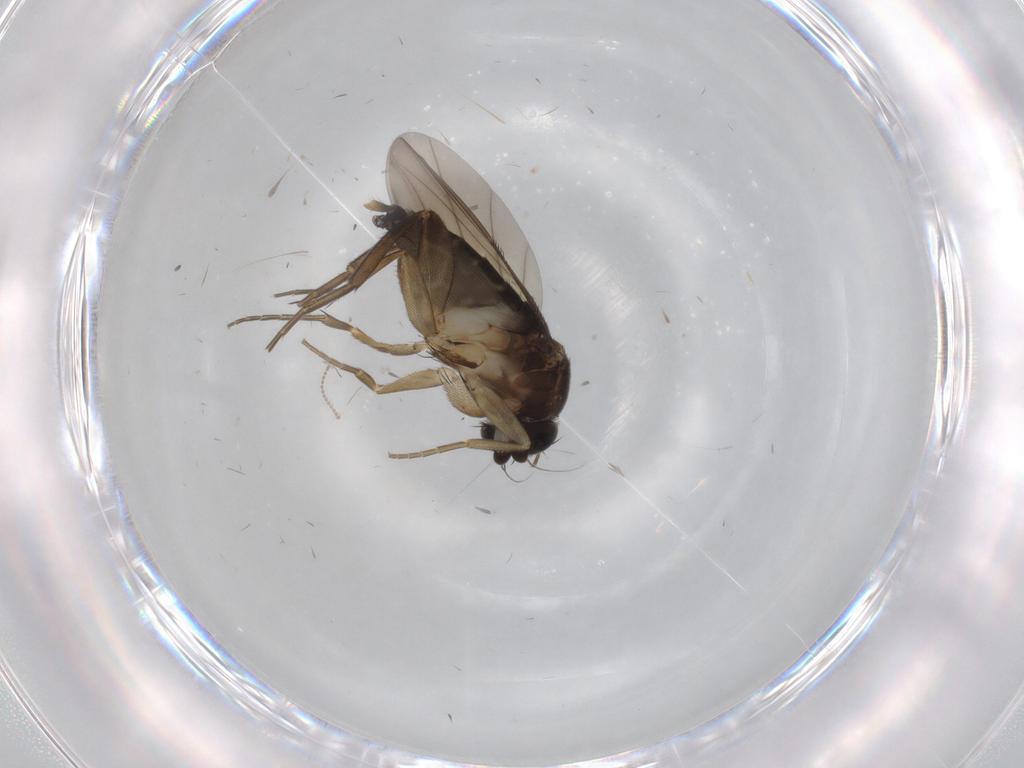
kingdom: Animalia
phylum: Arthropoda
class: Insecta
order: Diptera
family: Phoridae
